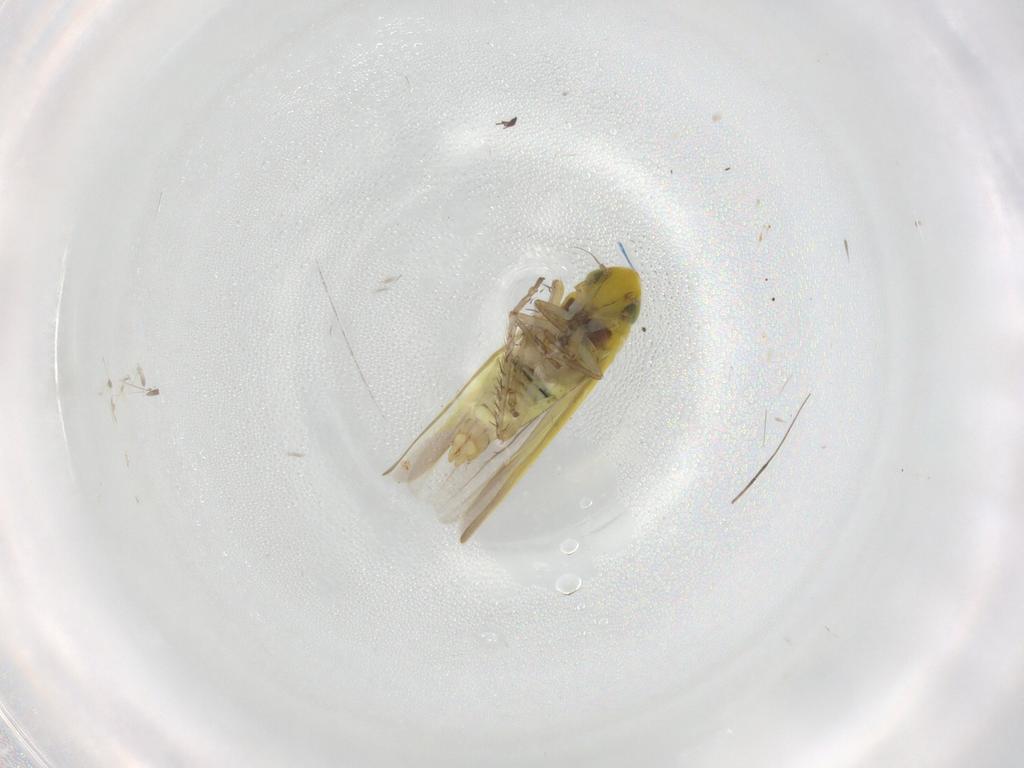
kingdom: Animalia
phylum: Arthropoda
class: Insecta
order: Hemiptera
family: Cicadellidae
